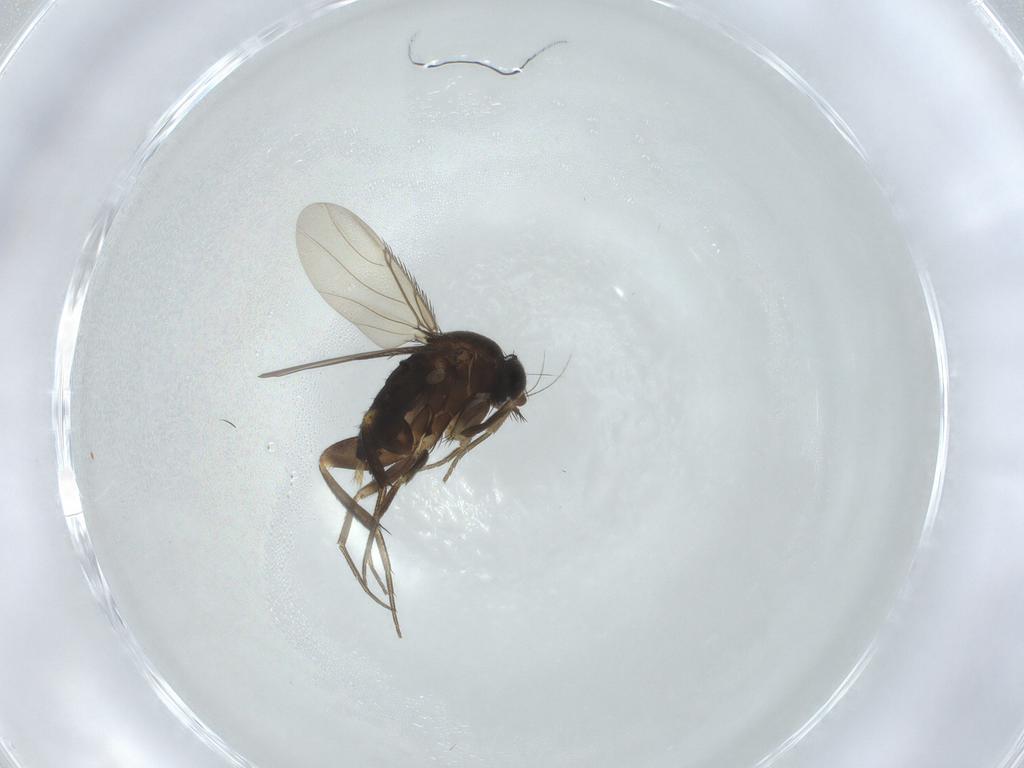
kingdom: Animalia
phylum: Arthropoda
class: Insecta
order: Diptera
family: Phoridae
